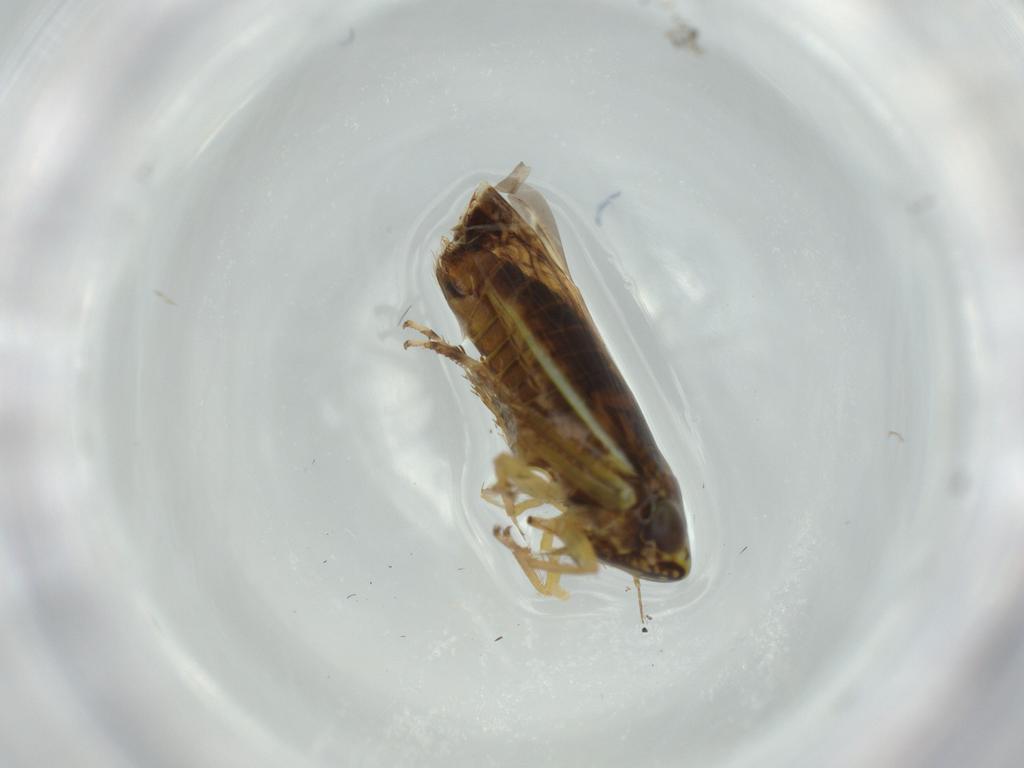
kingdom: Animalia
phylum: Arthropoda
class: Insecta
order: Hemiptera
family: Cicadellidae
